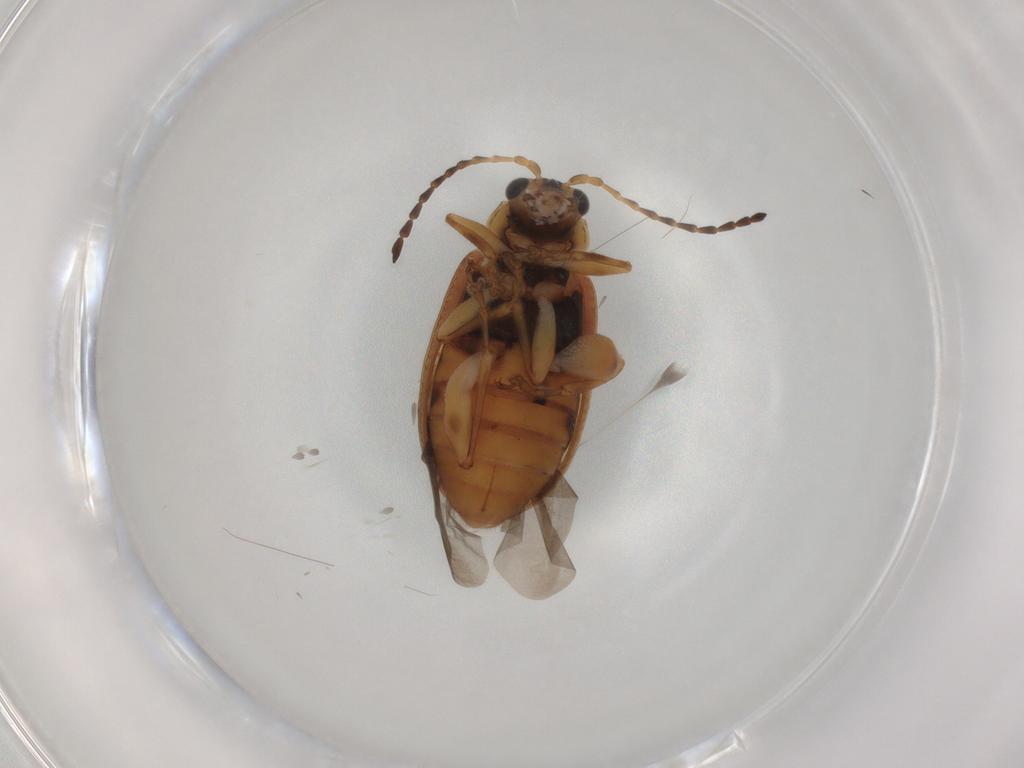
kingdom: Animalia
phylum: Arthropoda
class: Insecta
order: Coleoptera
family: Chrysomelidae
